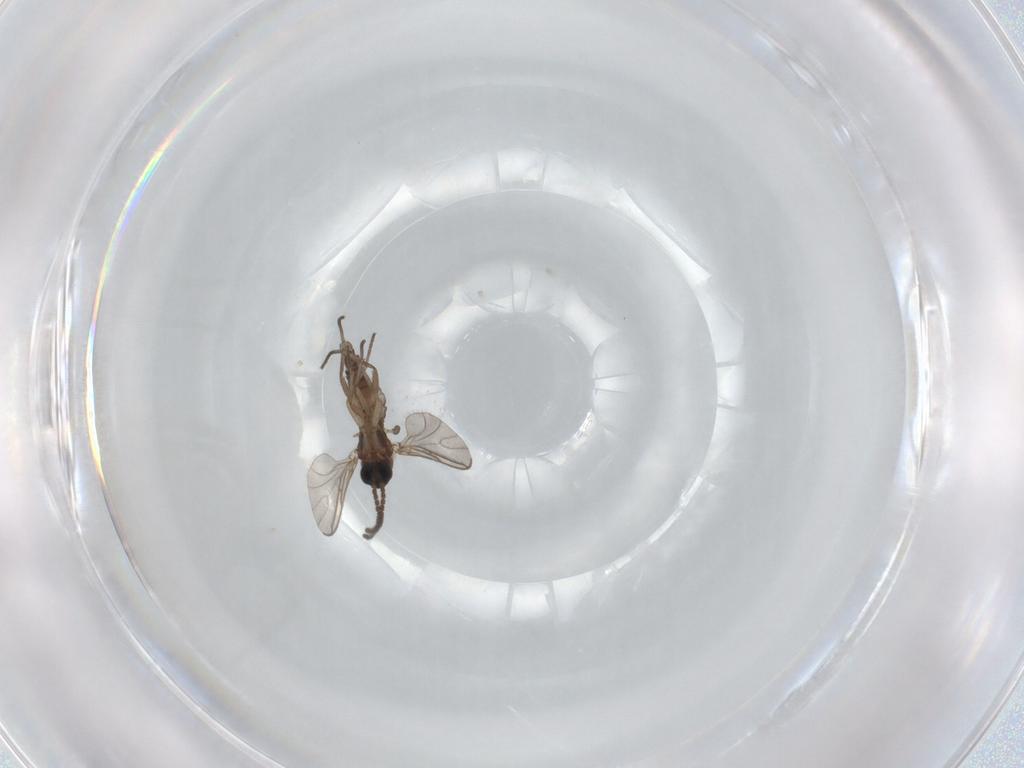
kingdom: Animalia
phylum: Arthropoda
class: Insecta
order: Diptera
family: Sciaridae
